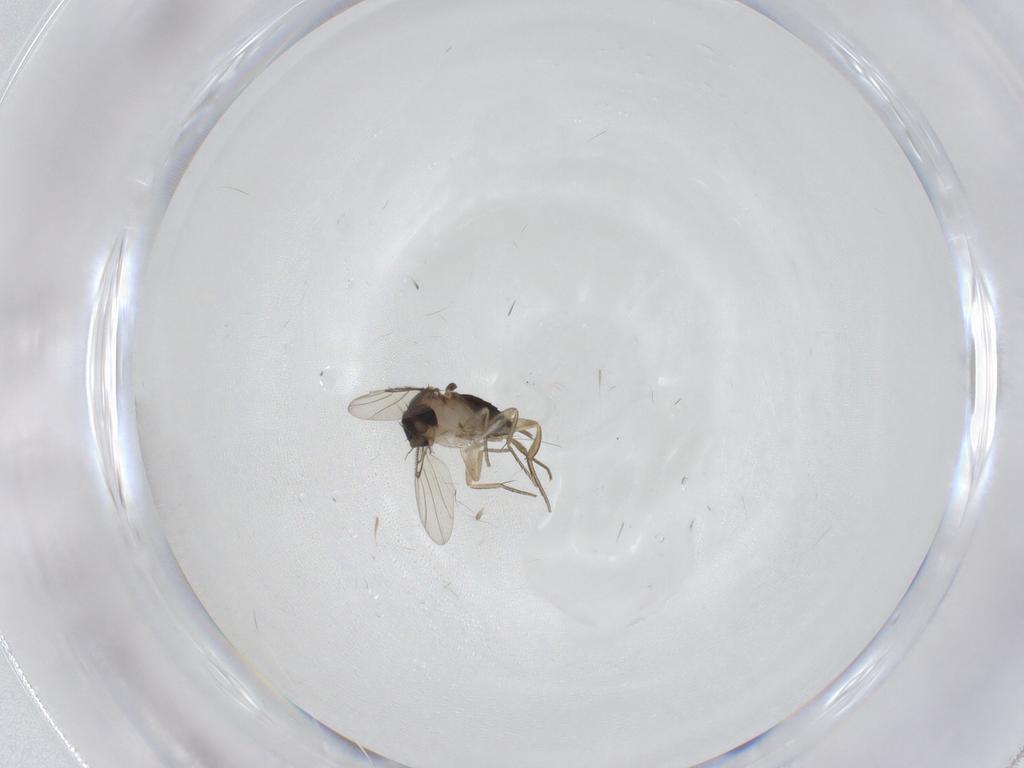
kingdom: Animalia
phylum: Arthropoda
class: Insecta
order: Diptera
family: Phoridae
